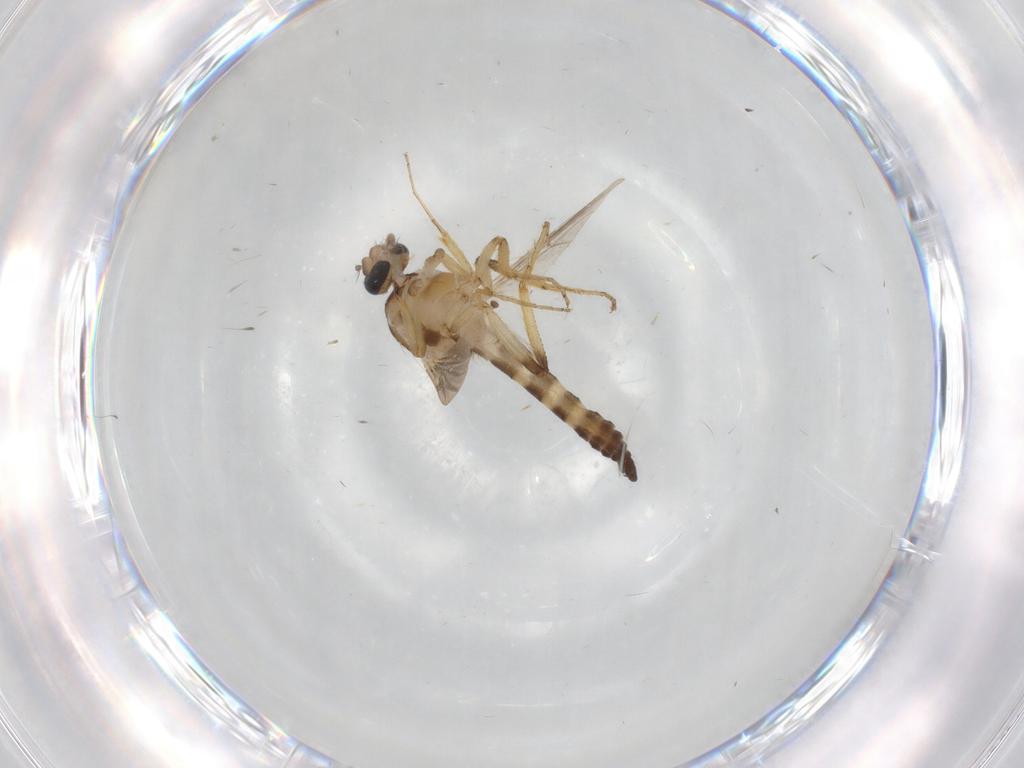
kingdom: Animalia
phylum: Arthropoda
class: Insecta
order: Diptera
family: Ceratopogonidae
